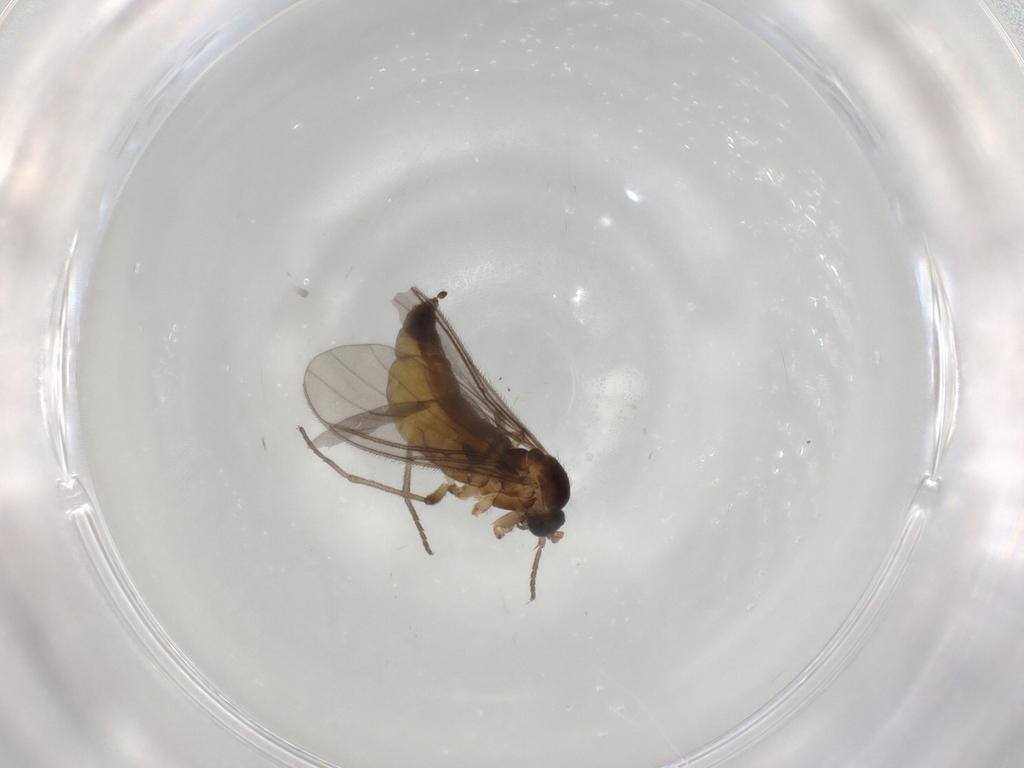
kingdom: Animalia
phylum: Arthropoda
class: Insecta
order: Diptera
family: Sciaridae
